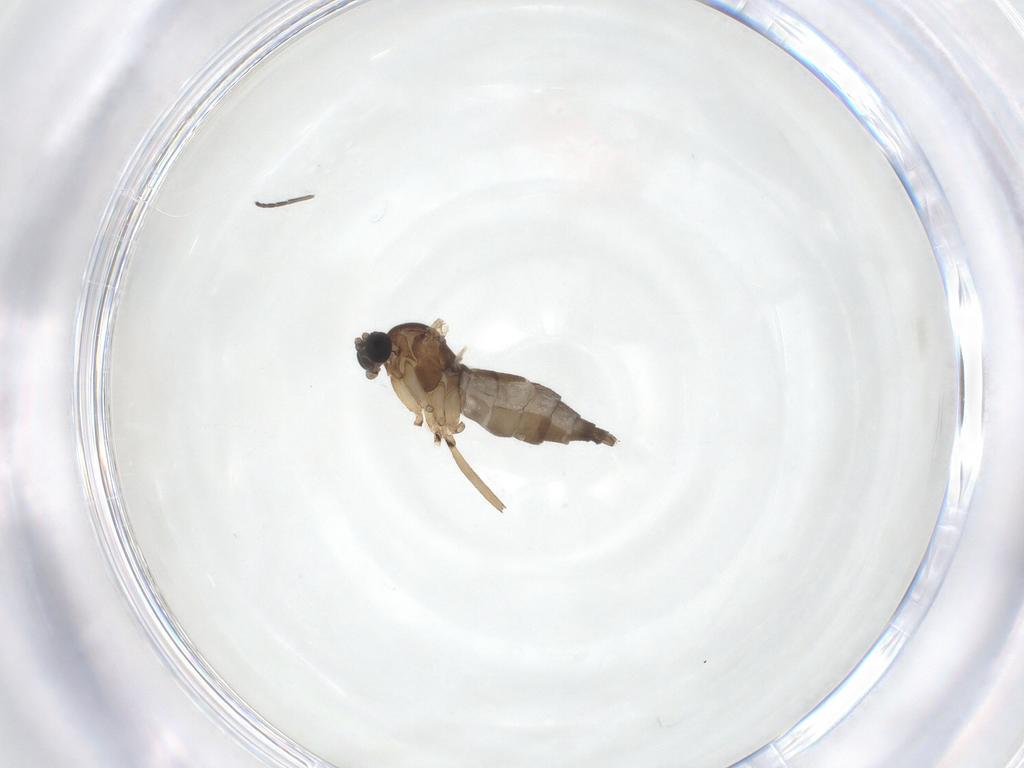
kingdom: Animalia
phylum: Arthropoda
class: Insecta
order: Diptera
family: Sciaridae
